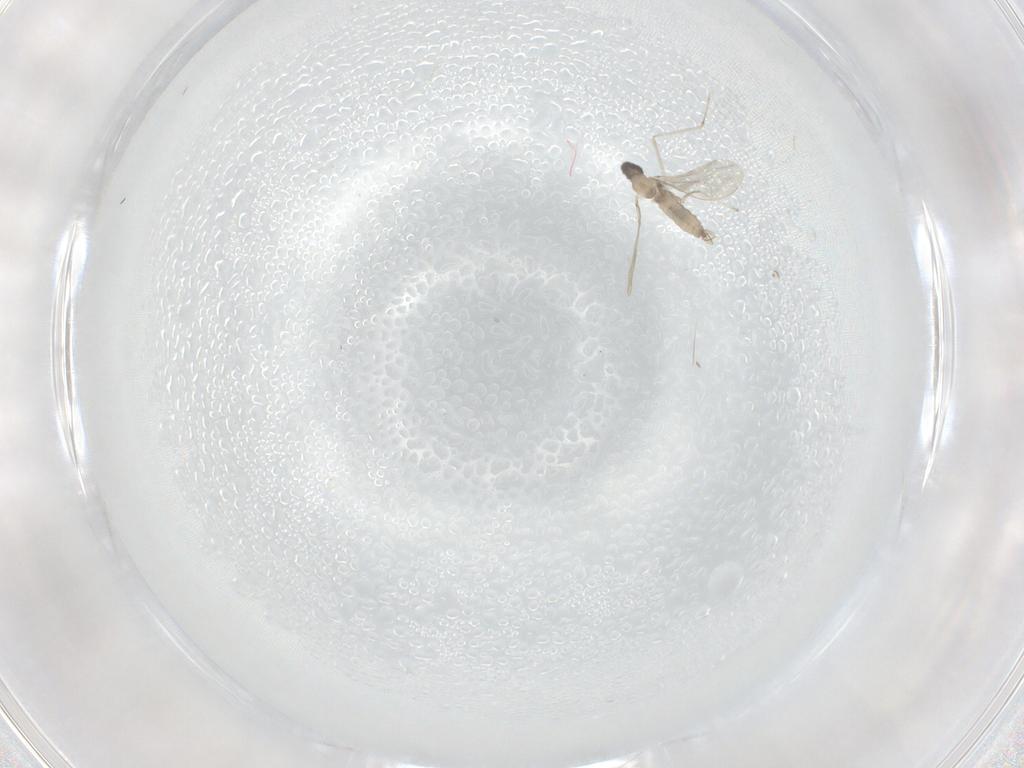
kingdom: Animalia
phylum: Arthropoda
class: Insecta
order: Diptera
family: Cecidomyiidae
